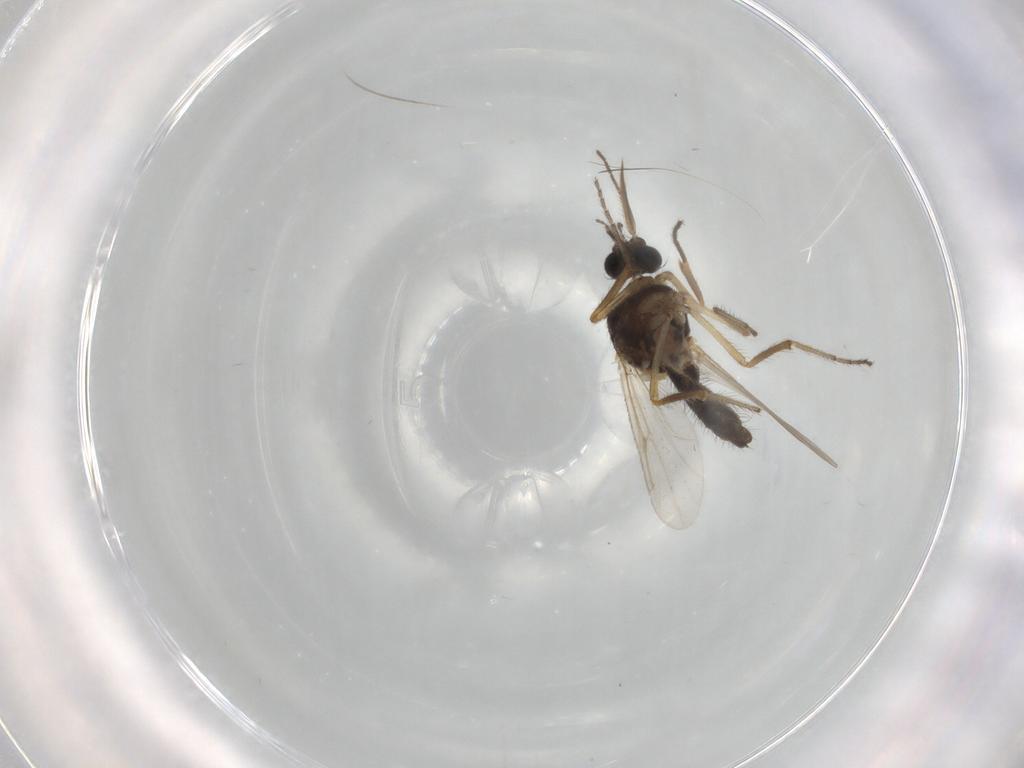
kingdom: Animalia
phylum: Arthropoda
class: Insecta
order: Diptera
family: Ceratopogonidae
